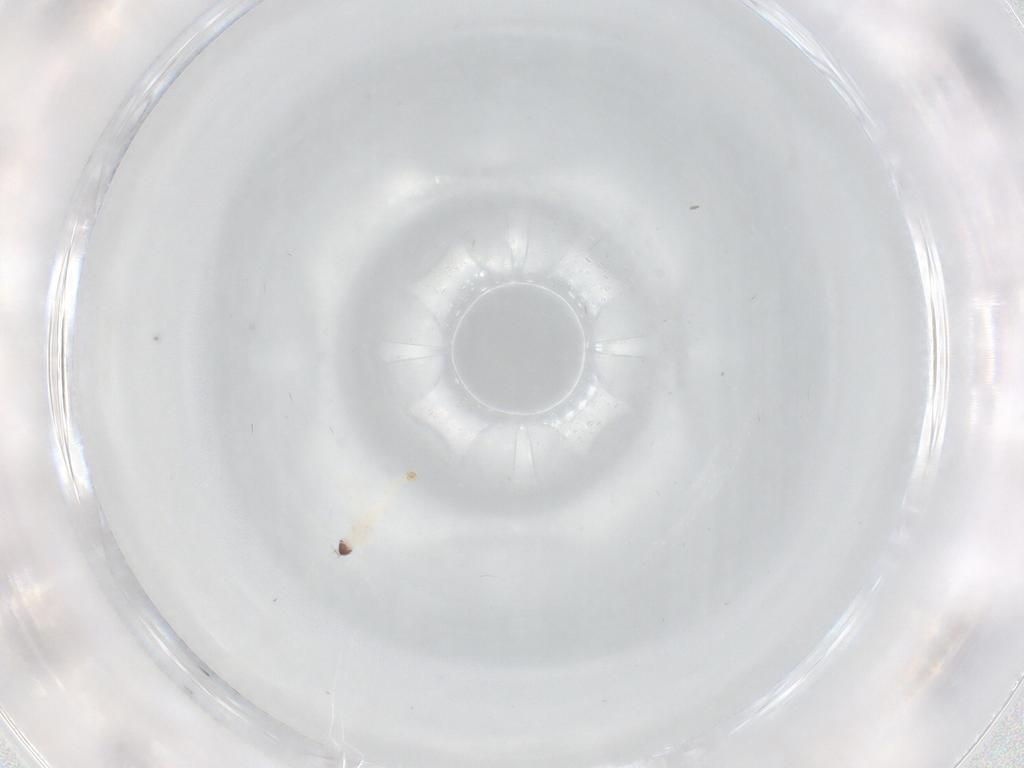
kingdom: Animalia
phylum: Arthropoda
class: Insecta
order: Diptera
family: Cecidomyiidae
